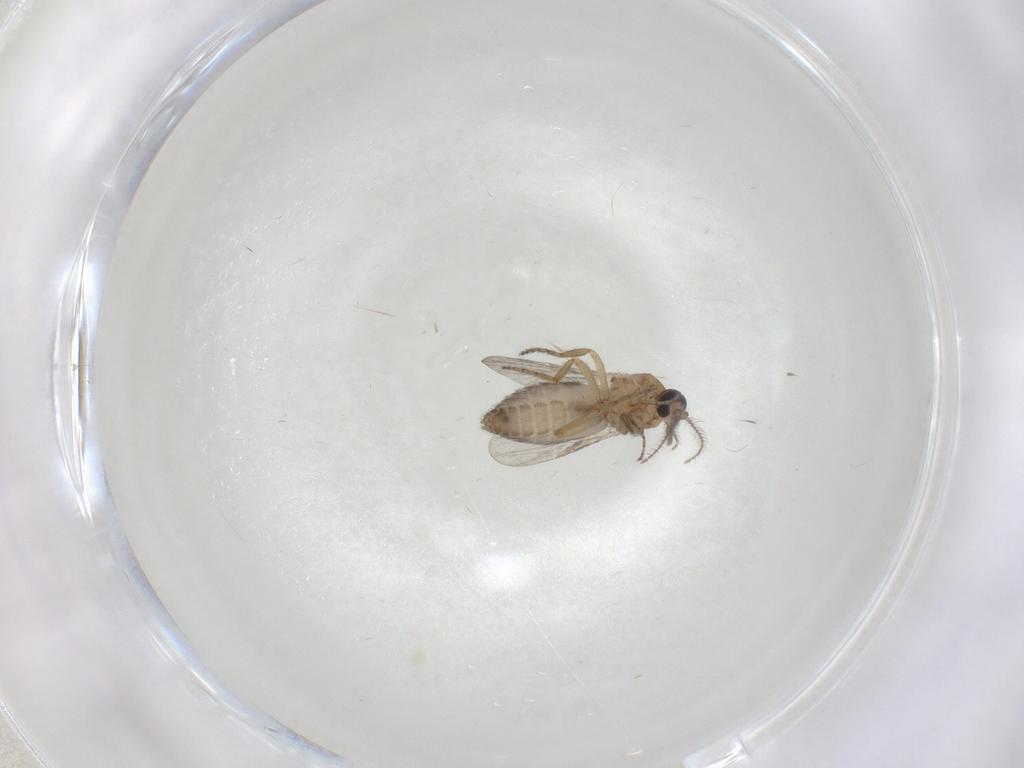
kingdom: Animalia
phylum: Arthropoda
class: Insecta
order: Diptera
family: Ceratopogonidae
